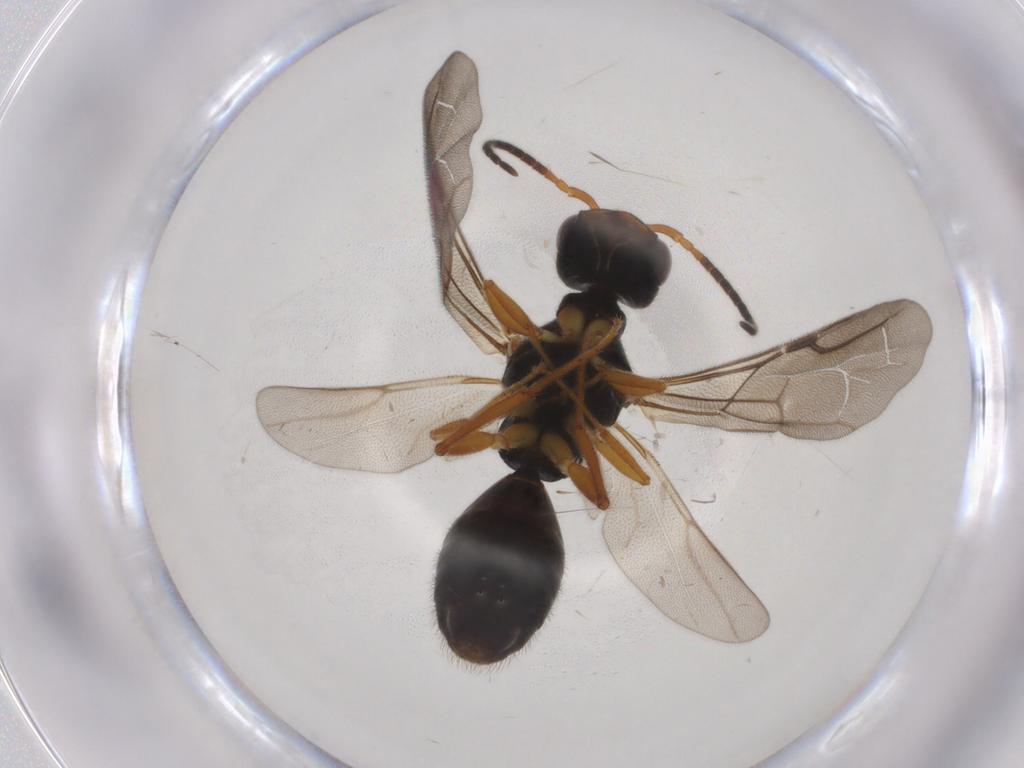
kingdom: Animalia
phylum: Arthropoda
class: Insecta
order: Hymenoptera
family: Bethylidae
